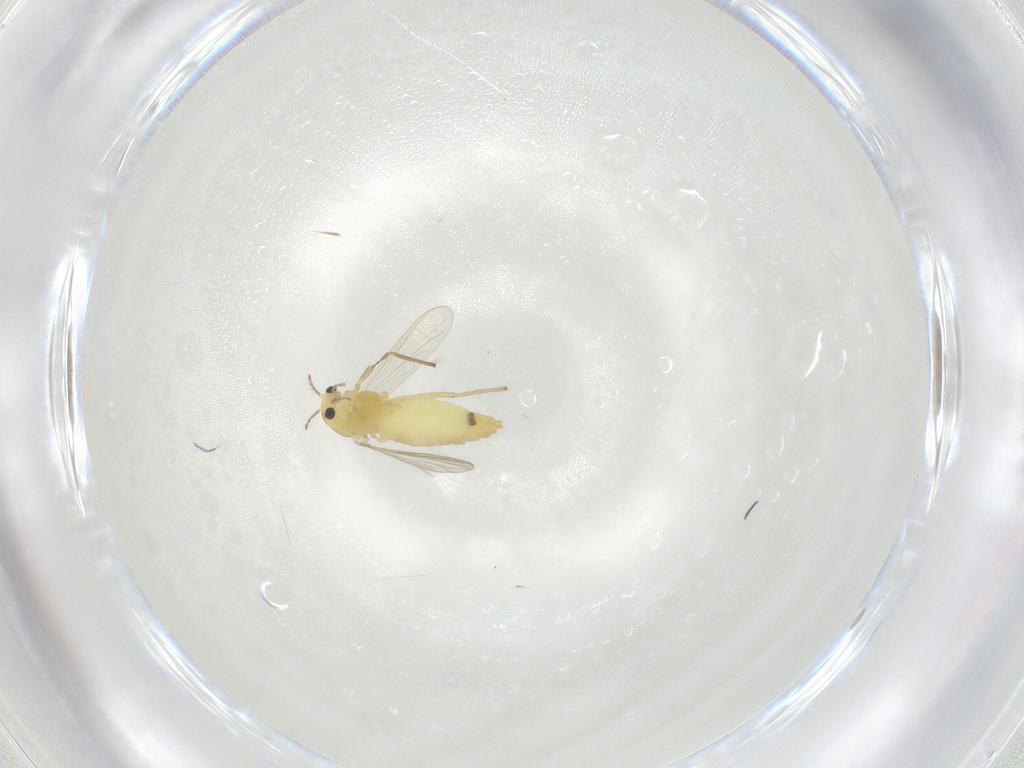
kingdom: Animalia
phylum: Arthropoda
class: Insecta
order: Diptera
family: Chironomidae
